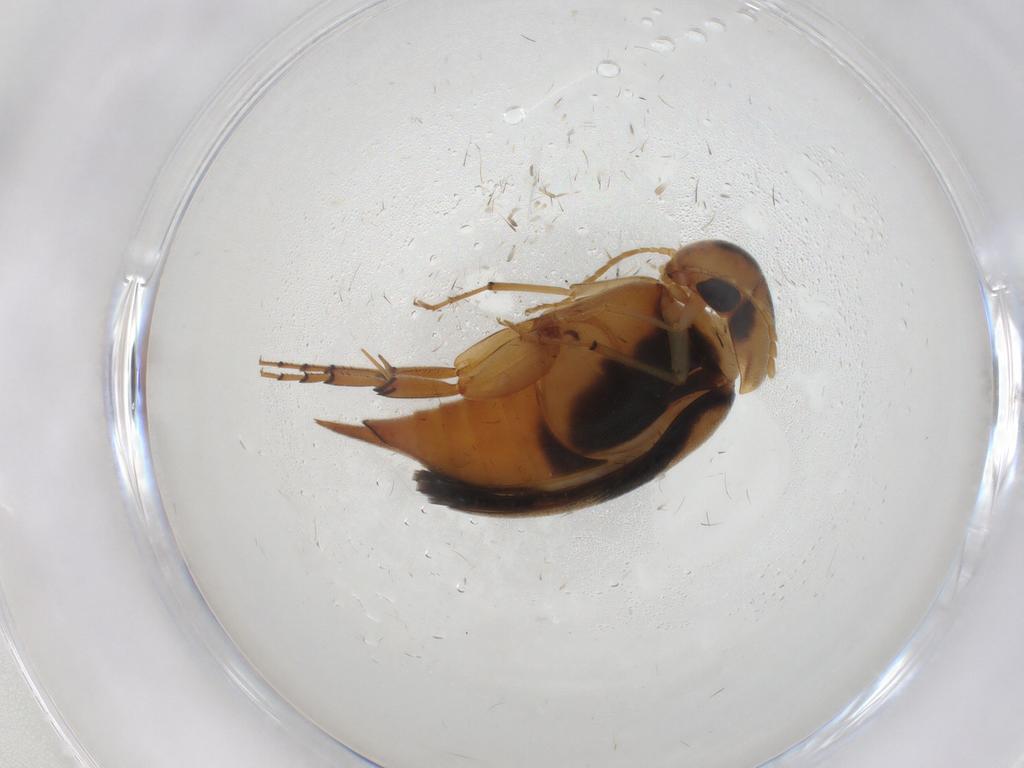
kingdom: Animalia
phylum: Arthropoda
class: Insecta
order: Coleoptera
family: Mordellidae
